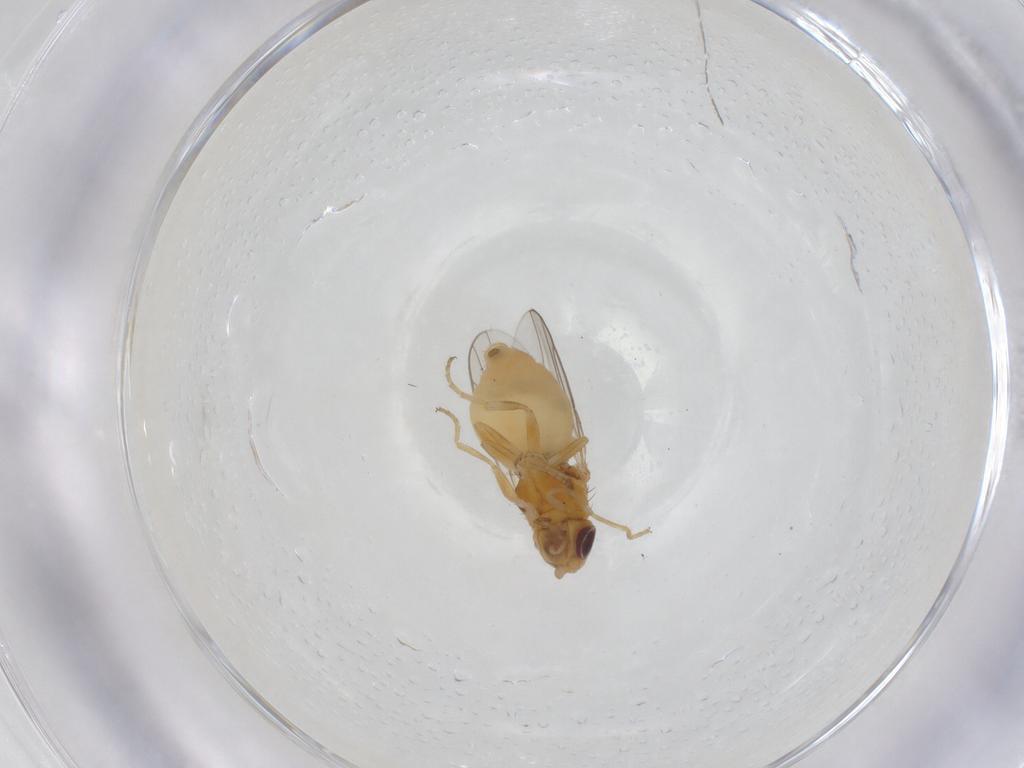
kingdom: Animalia
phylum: Arthropoda
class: Insecta
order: Diptera
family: Chloropidae
